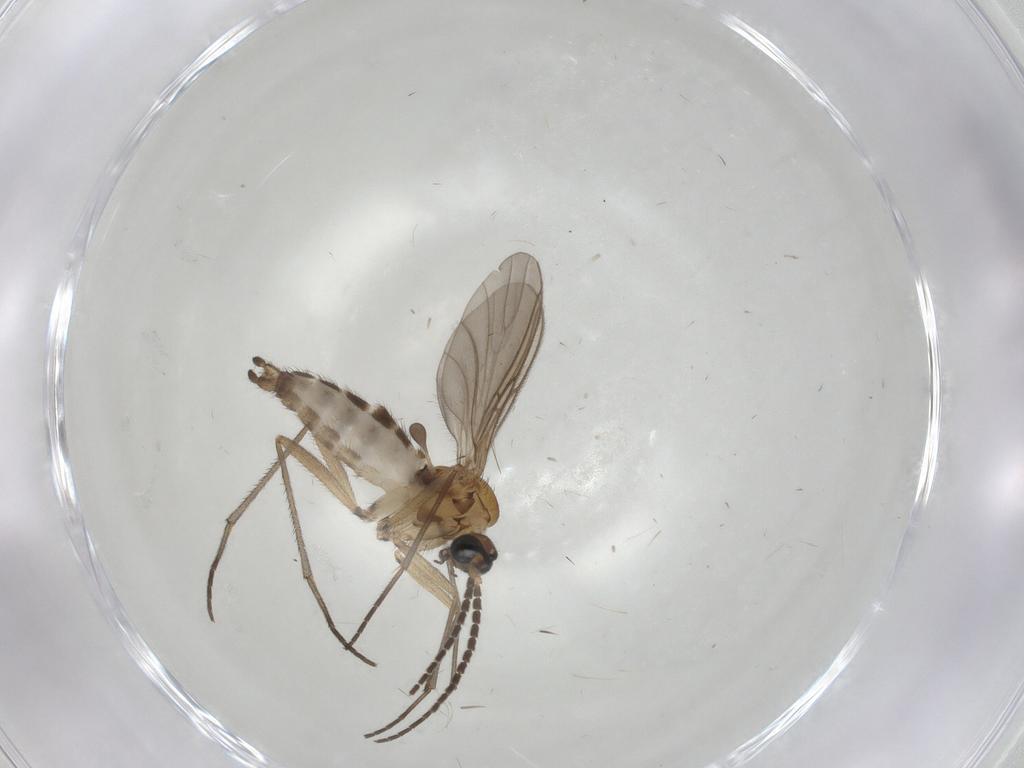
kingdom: Animalia
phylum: Arthropoda
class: Insecta
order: Diptera
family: Sciaridae
